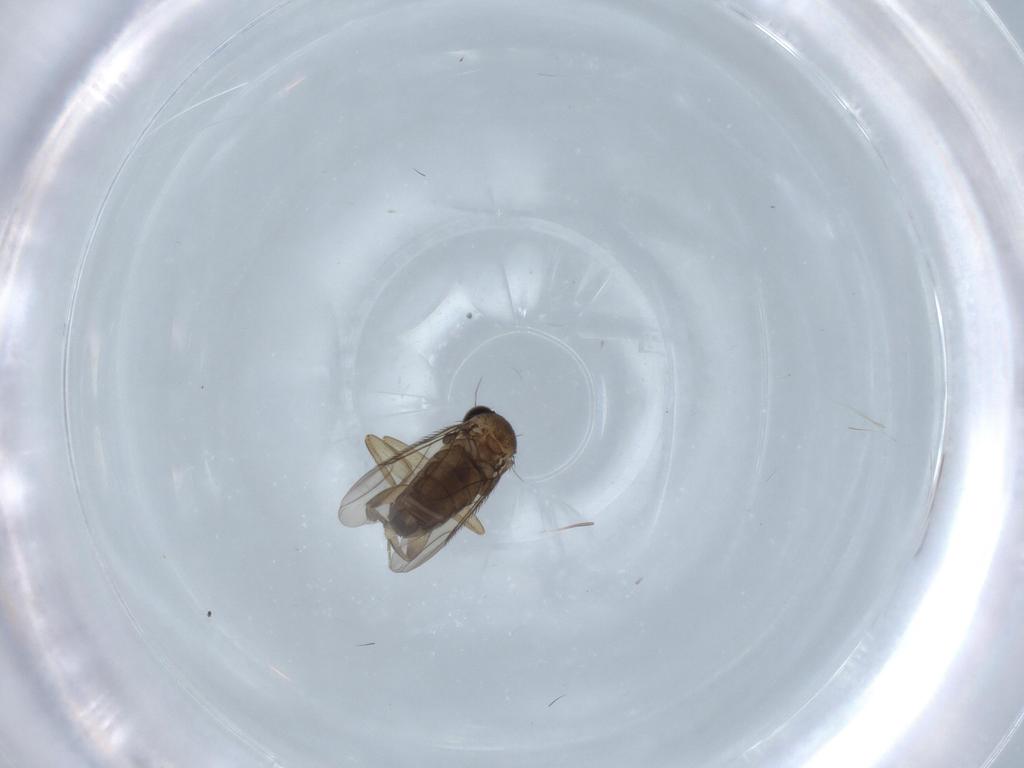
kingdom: Animalia
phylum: Arthropoda
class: Insecta
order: Diptera
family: Phoridae
